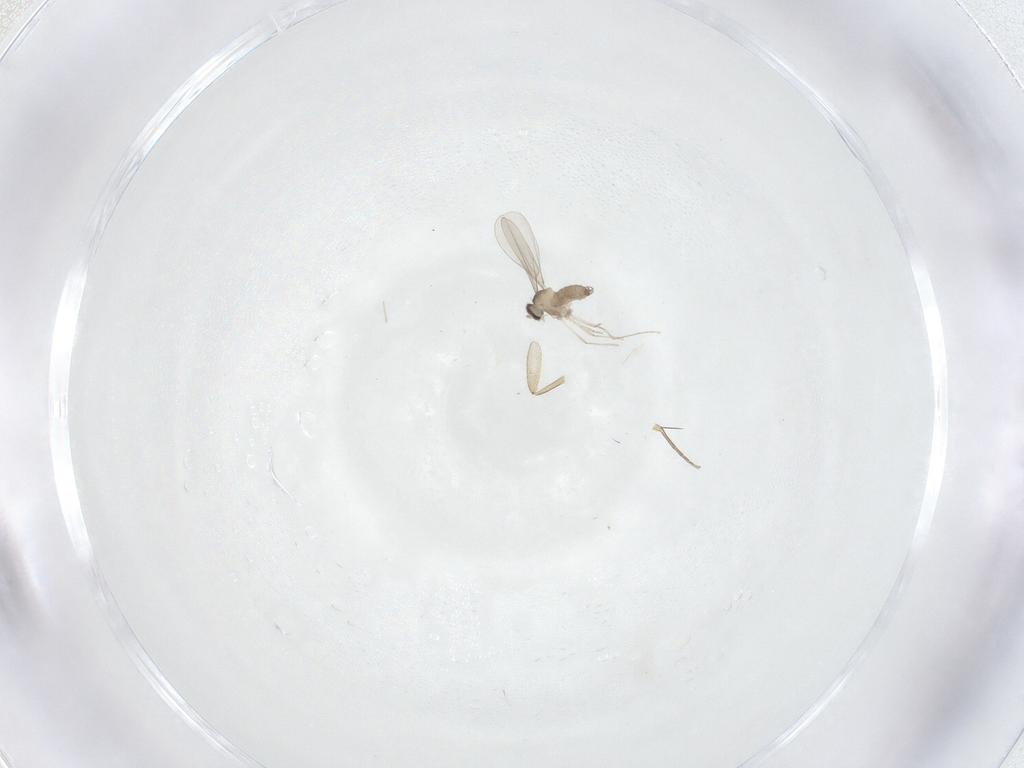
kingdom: Animalia
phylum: Arthropoda
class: Insecta
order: Diptera
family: Phoridae
